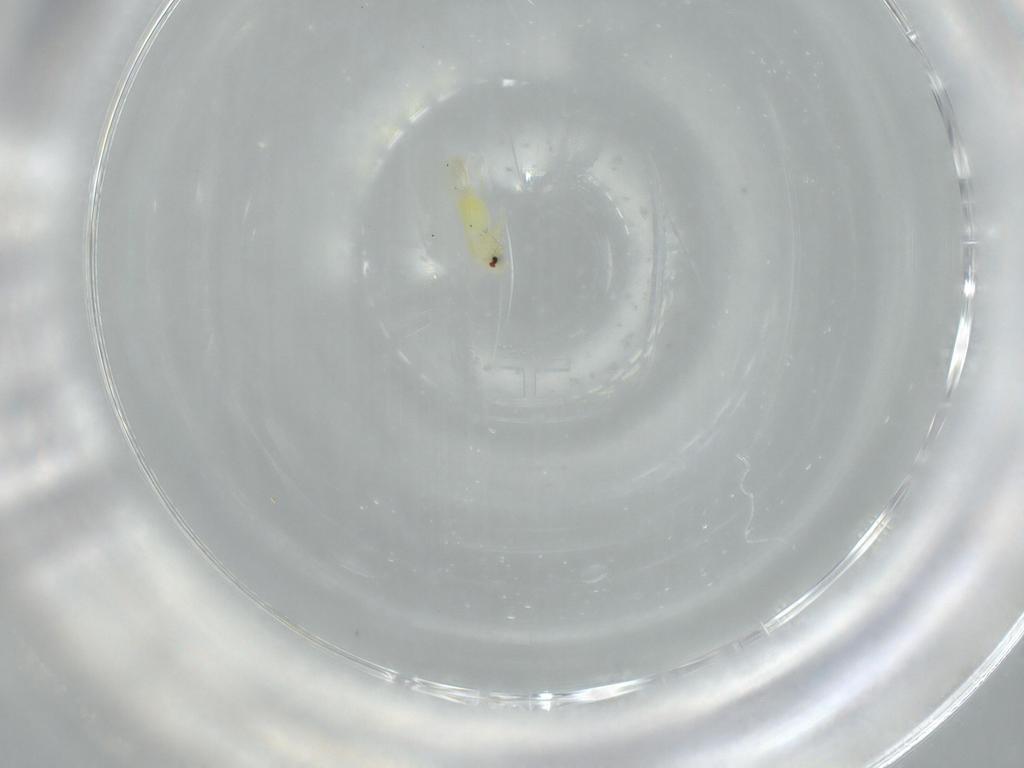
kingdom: Animalia
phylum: Arthropoda
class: Insecta
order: Hemiptera
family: Aleyrodidae
